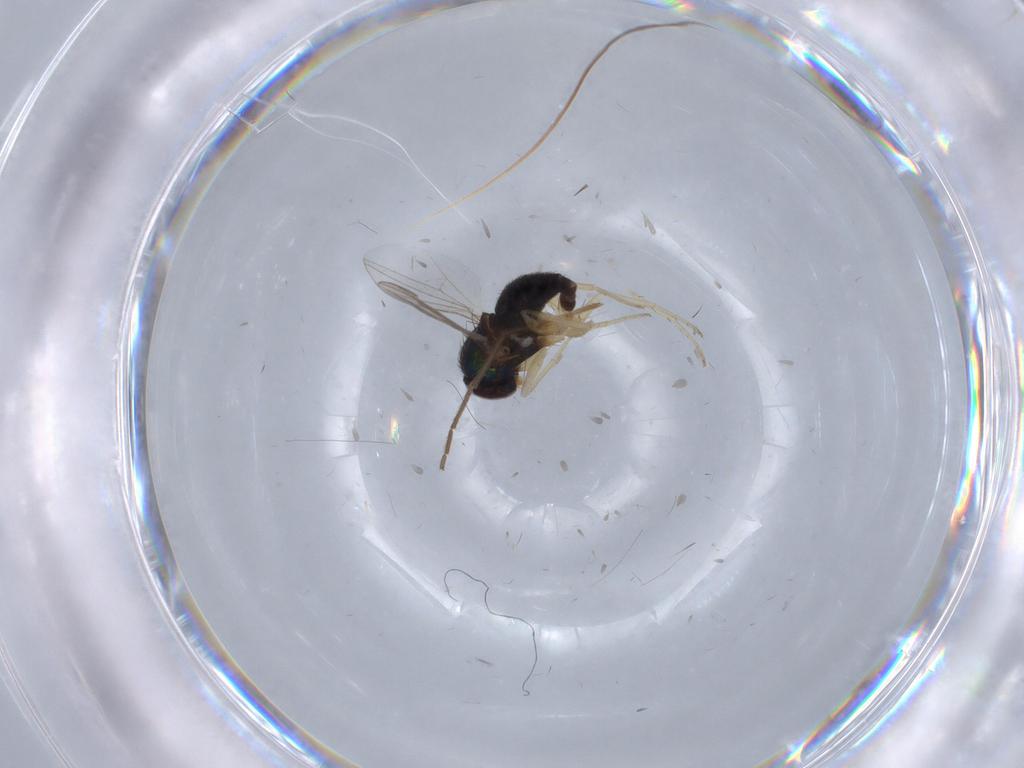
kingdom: Animalia
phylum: Arthropoda
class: Insecta
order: Diptera
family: Dolichopodidae
